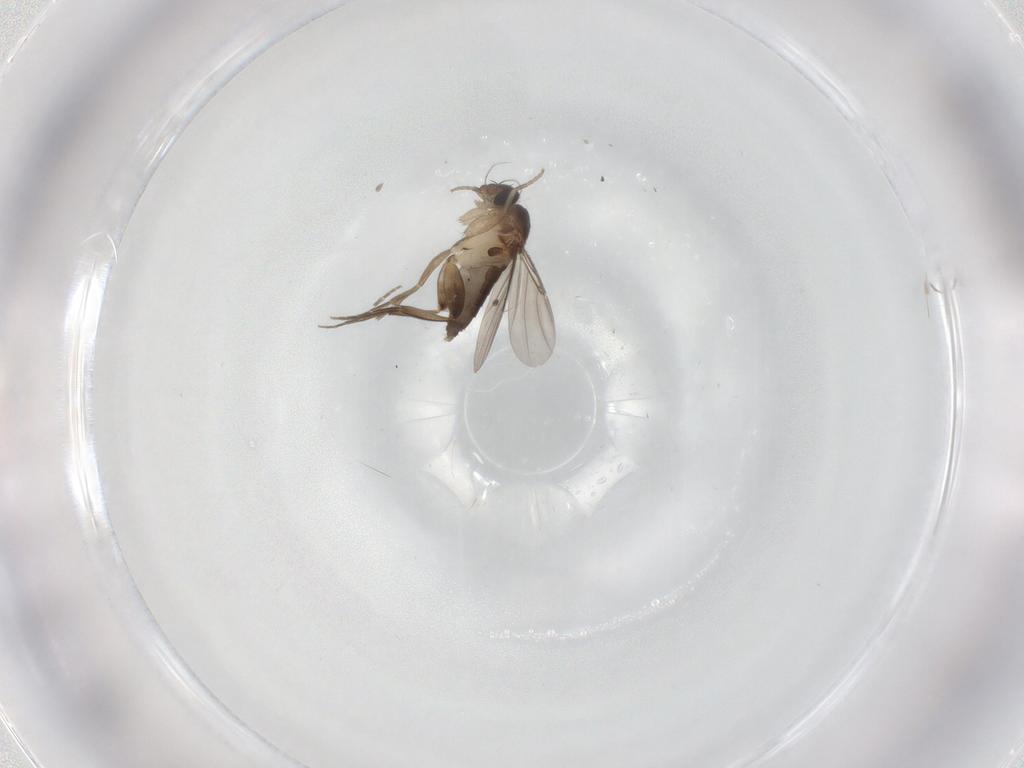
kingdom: Animalia
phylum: Arthropoda
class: Insecta
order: Diptera
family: Phoridae
